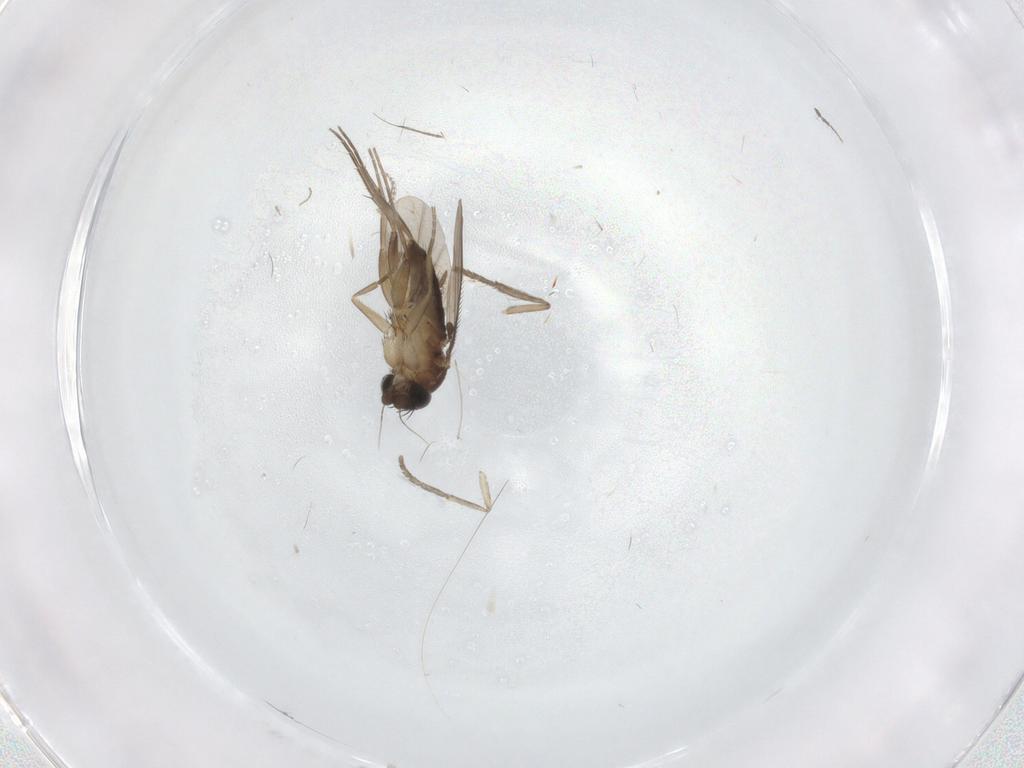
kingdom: Animalia
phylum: Arthropoda
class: Insecta
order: Diptera
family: Phoridae
